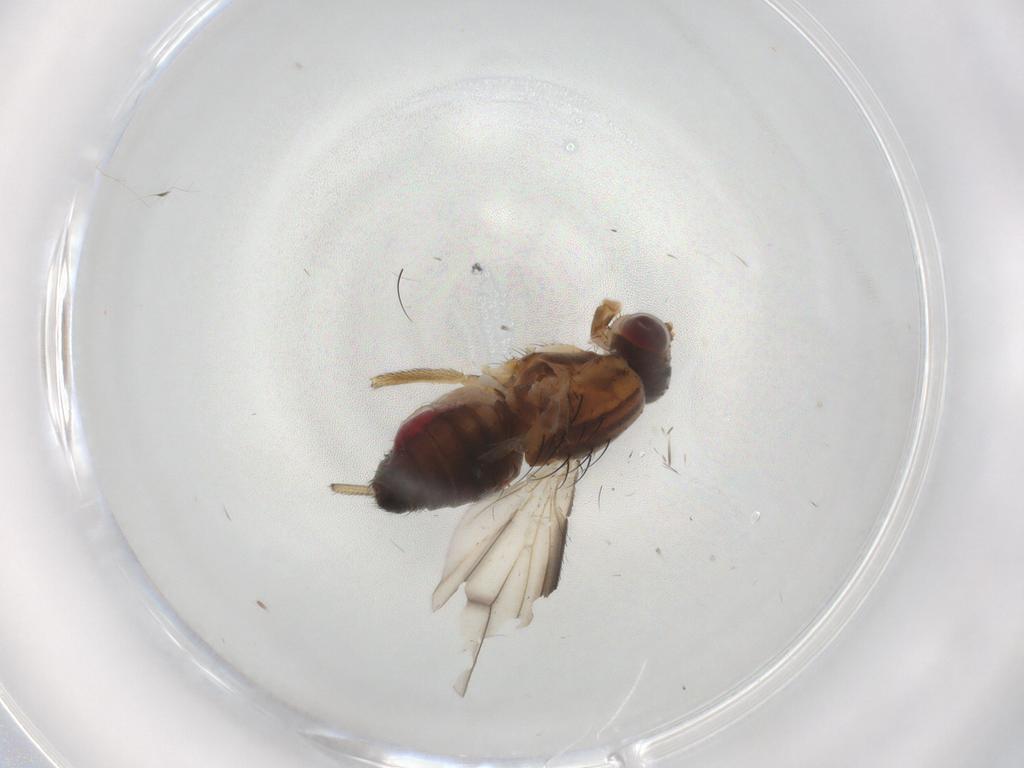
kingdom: Animalia
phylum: Arthropoda
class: Insecta
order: Diptera
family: Heleomyzidae
